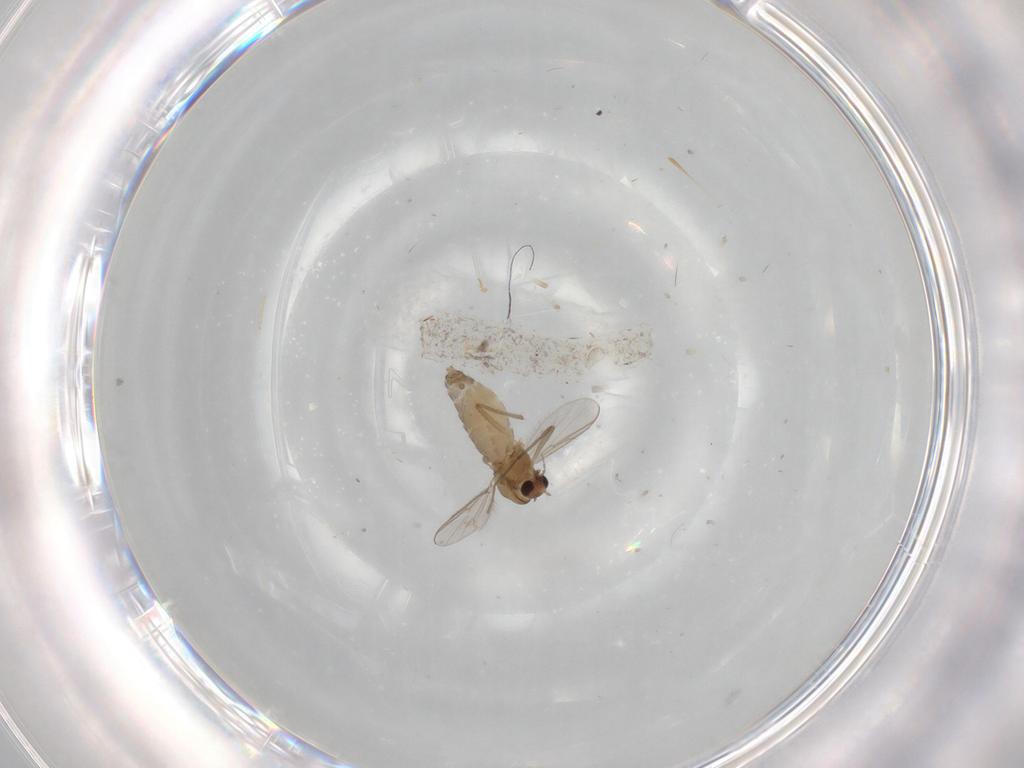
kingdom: Animalia
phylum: Arthropoda
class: Insecta
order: Diptera
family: Chironomidae
